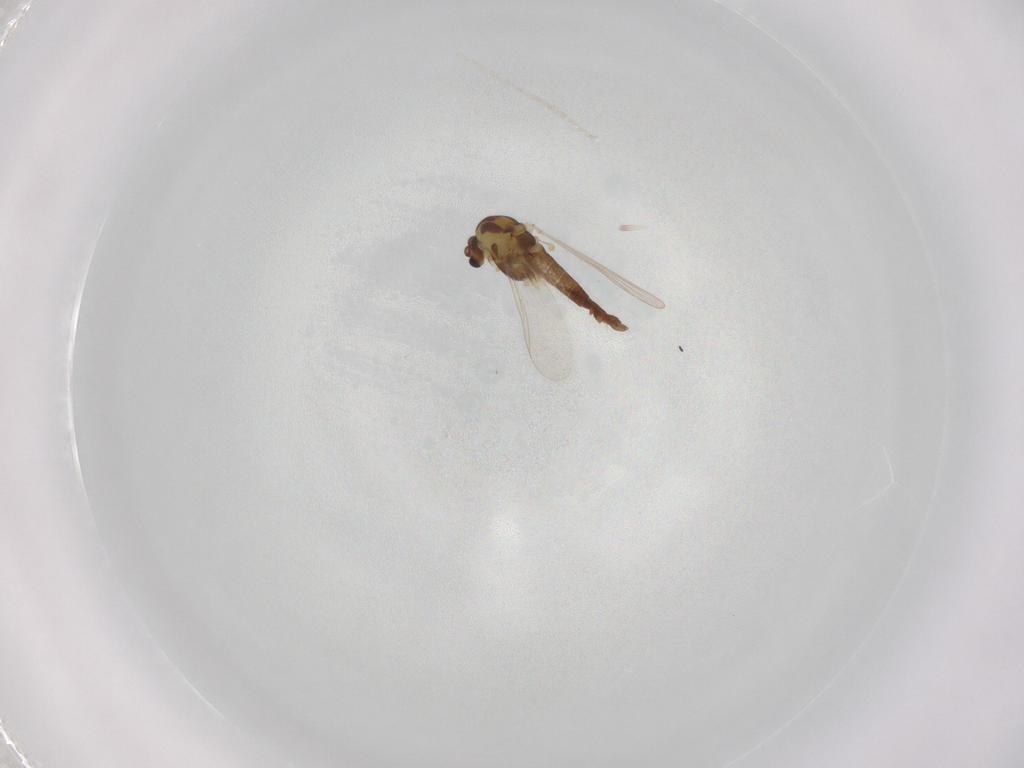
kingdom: Animalia
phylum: Arthropoda
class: Insecta
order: Diptera
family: Chironomidae
